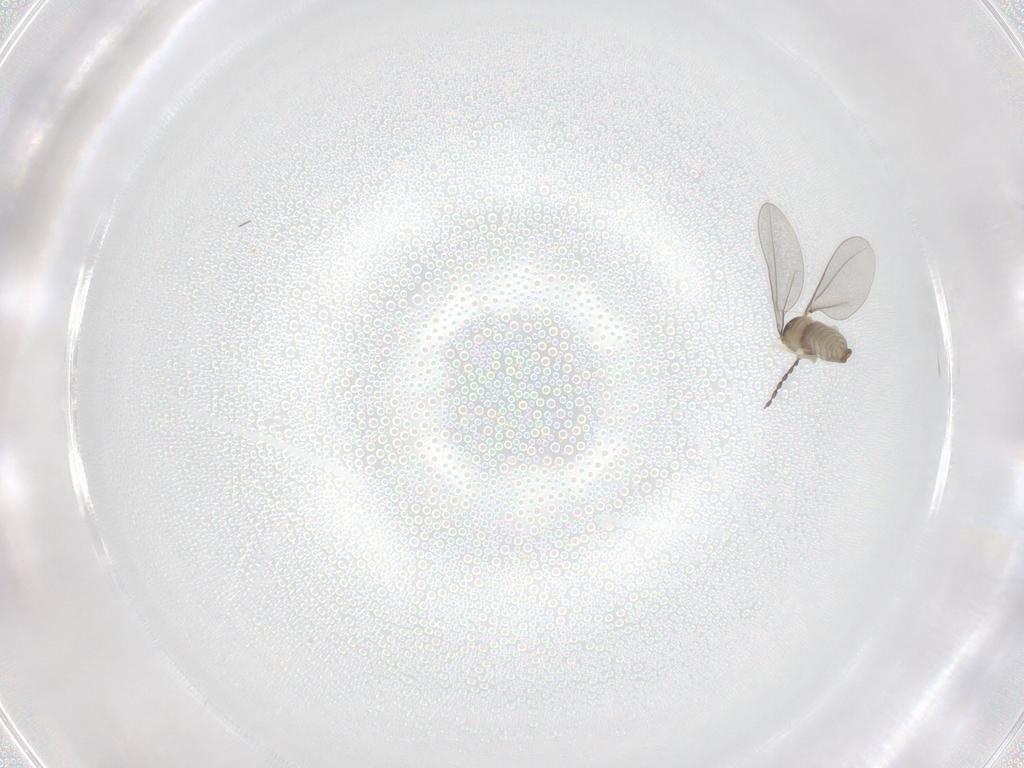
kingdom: Animalia
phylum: Arthropoda
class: Insecta
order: Diptera
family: Cecidomyiidae
